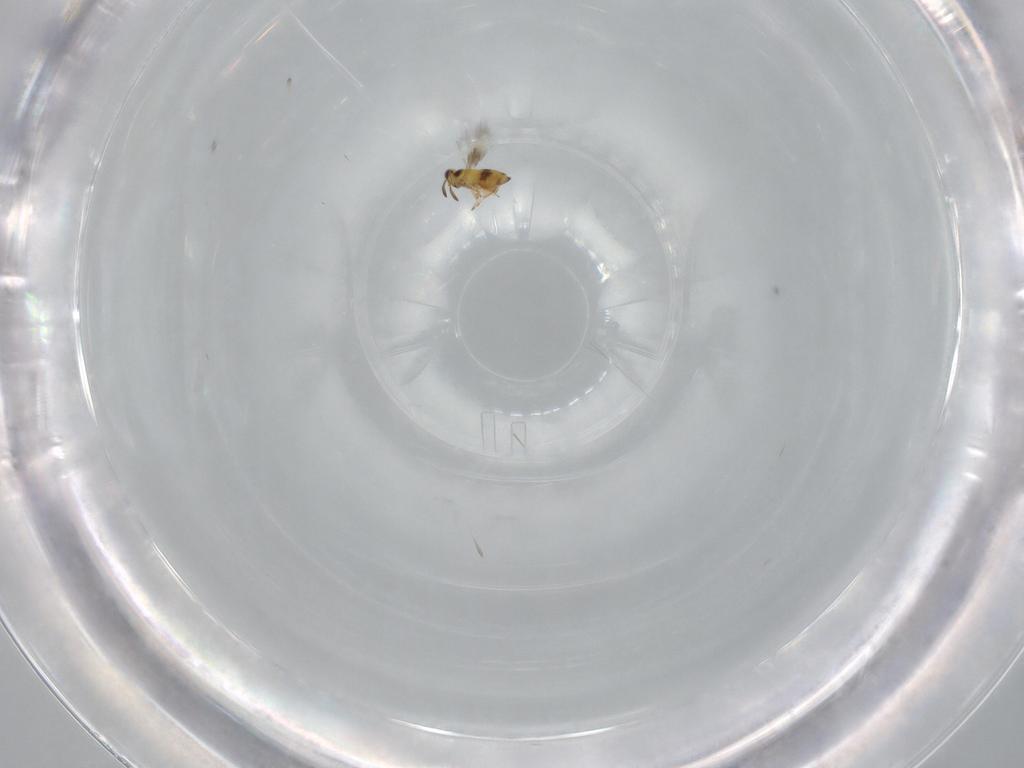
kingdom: Animalia
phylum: Arthropoda
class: Insecta
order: Hymenoptera
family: Signiphoridae
